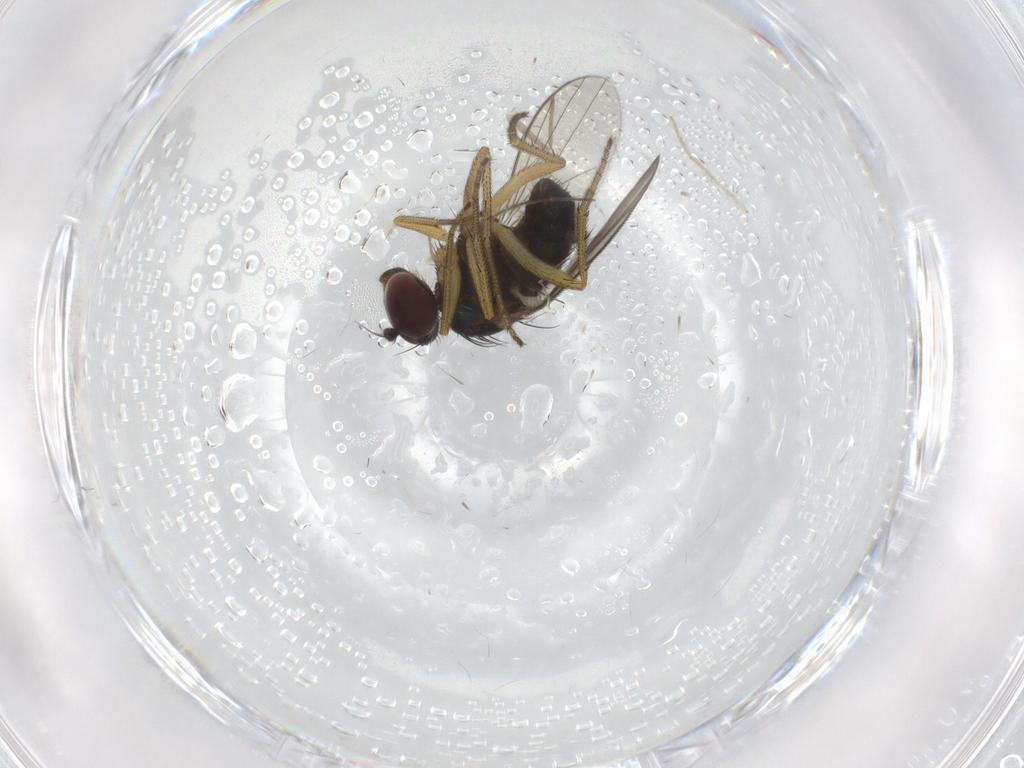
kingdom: Animalia
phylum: Arthropoda
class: Insecta
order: Diptera
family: Chironomidae
